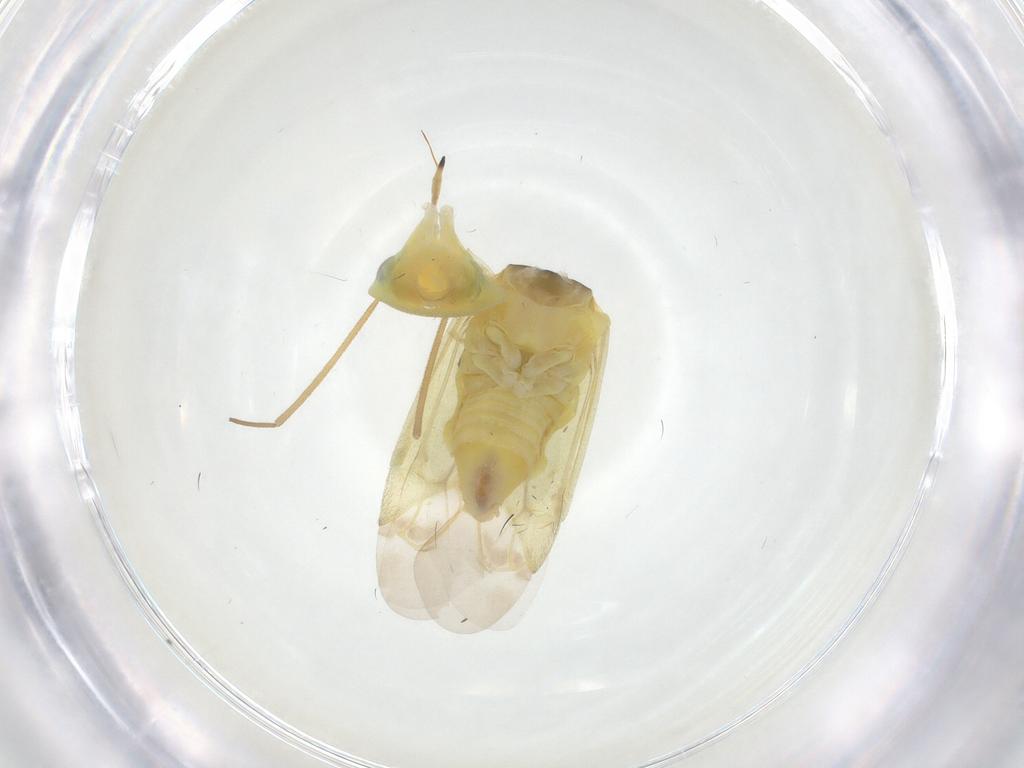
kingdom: Animalia
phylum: Arthropoda
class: Insecta
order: Hemiptera
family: Miridae
